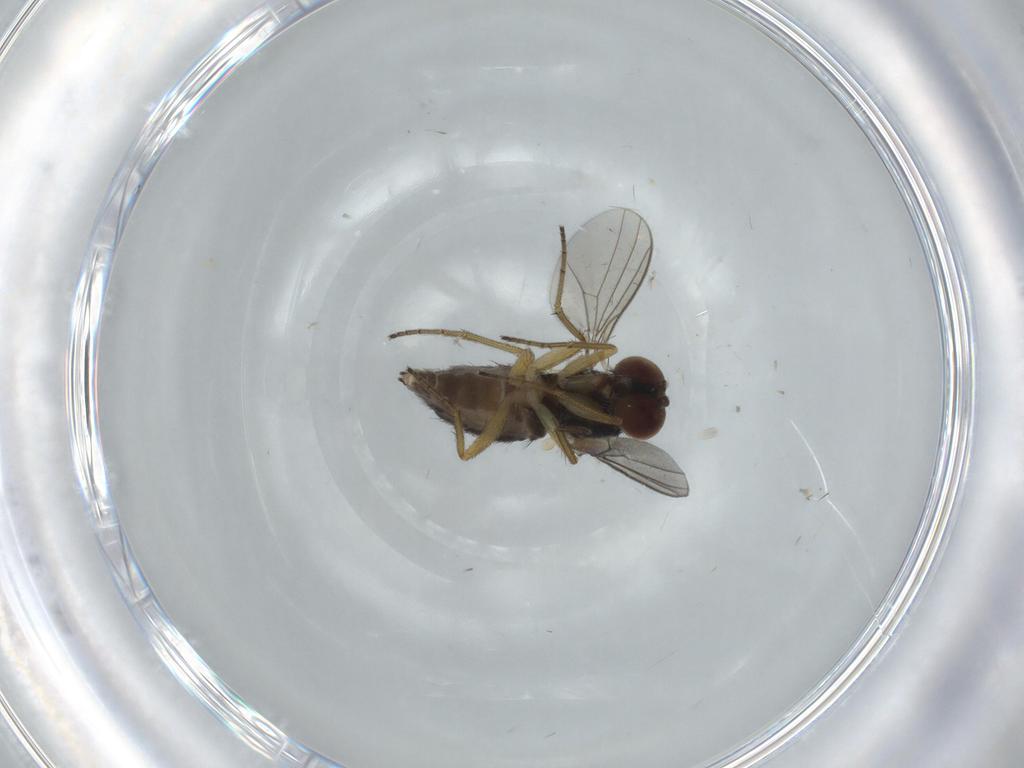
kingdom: Animalia
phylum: Arthropoda
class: Insecta
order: Diptera
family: Dolichopodidae
